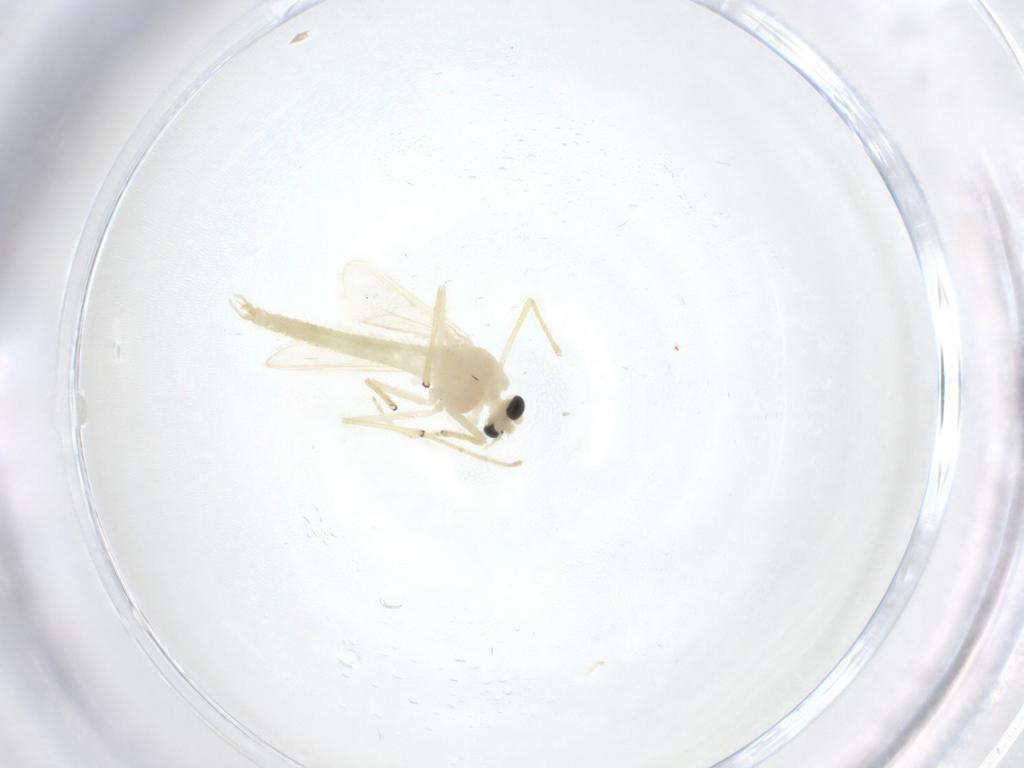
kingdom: Animalia
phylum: Arthropoda
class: Insecta
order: Diptera
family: Chironomidae
